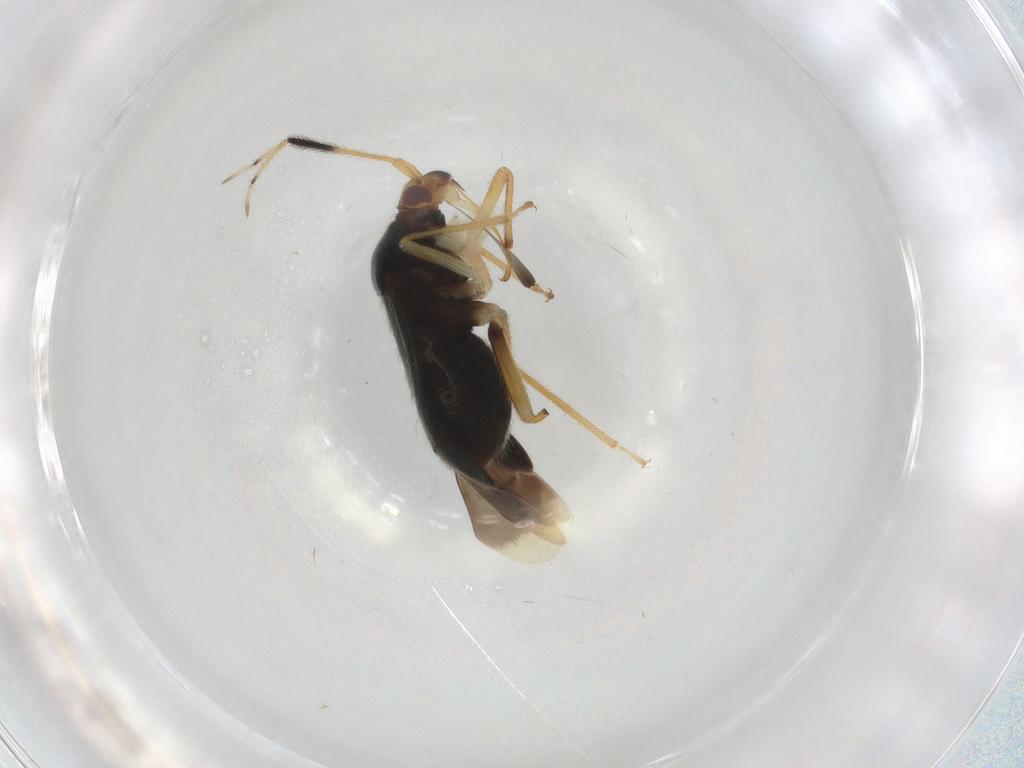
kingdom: Animalia
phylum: Arthropoda
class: Insecta
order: Hemiptera
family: Miridae
